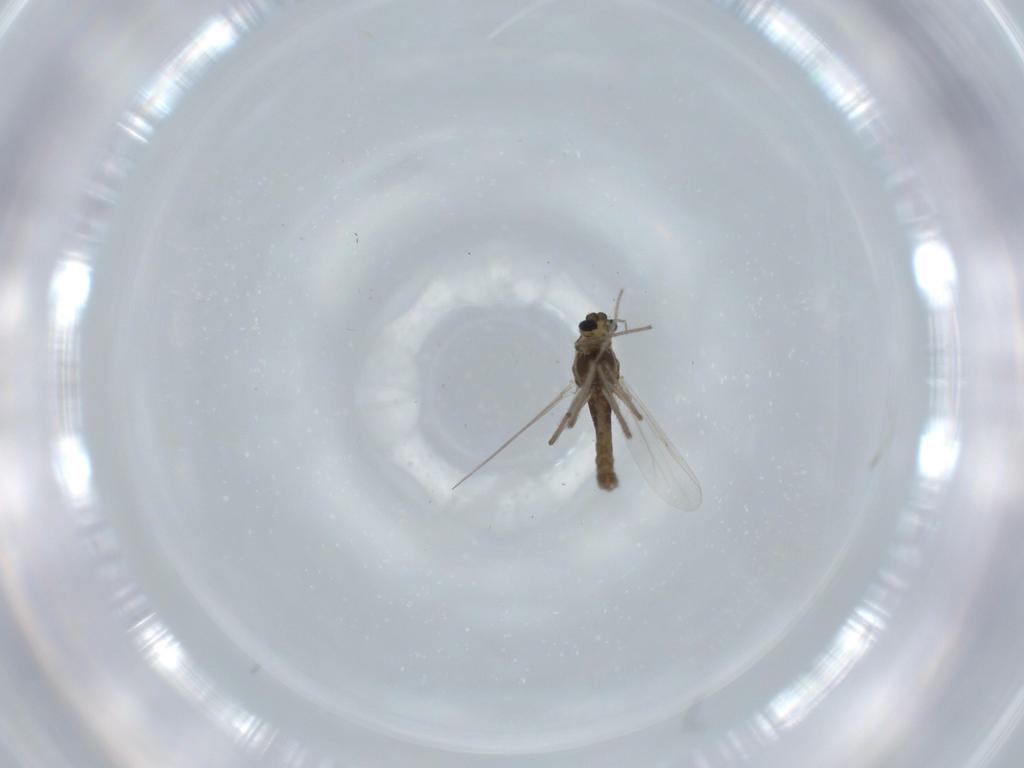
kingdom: Animalia
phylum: Arthropoda
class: Insecta
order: Diptera
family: Chironomidae
